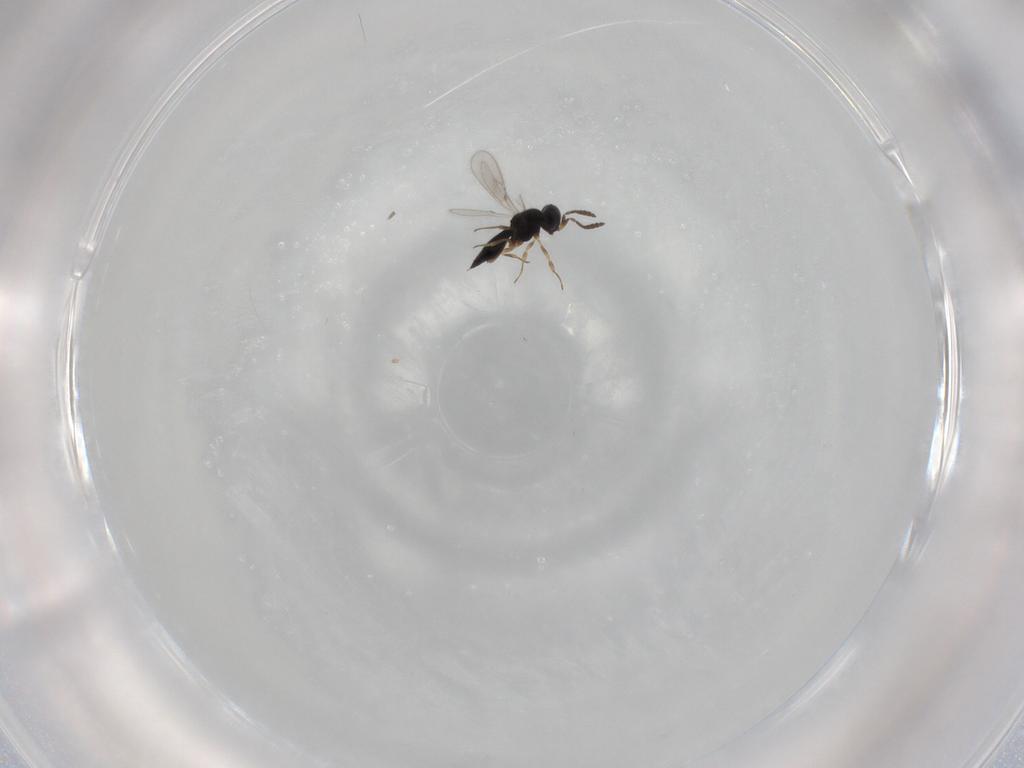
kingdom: Animalia
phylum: Arthropoda
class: Insecta
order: Hymenoptera
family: Scelionidae
